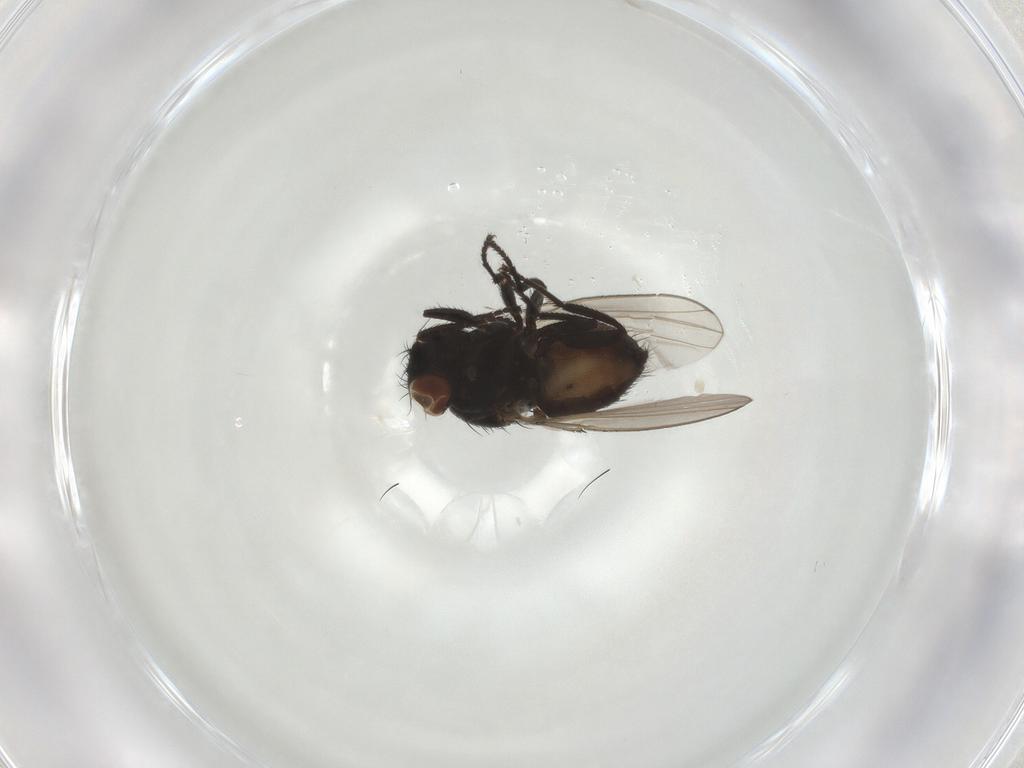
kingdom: Animalia
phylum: Arthropoda
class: Insecta
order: Diptera
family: Milichiidae
